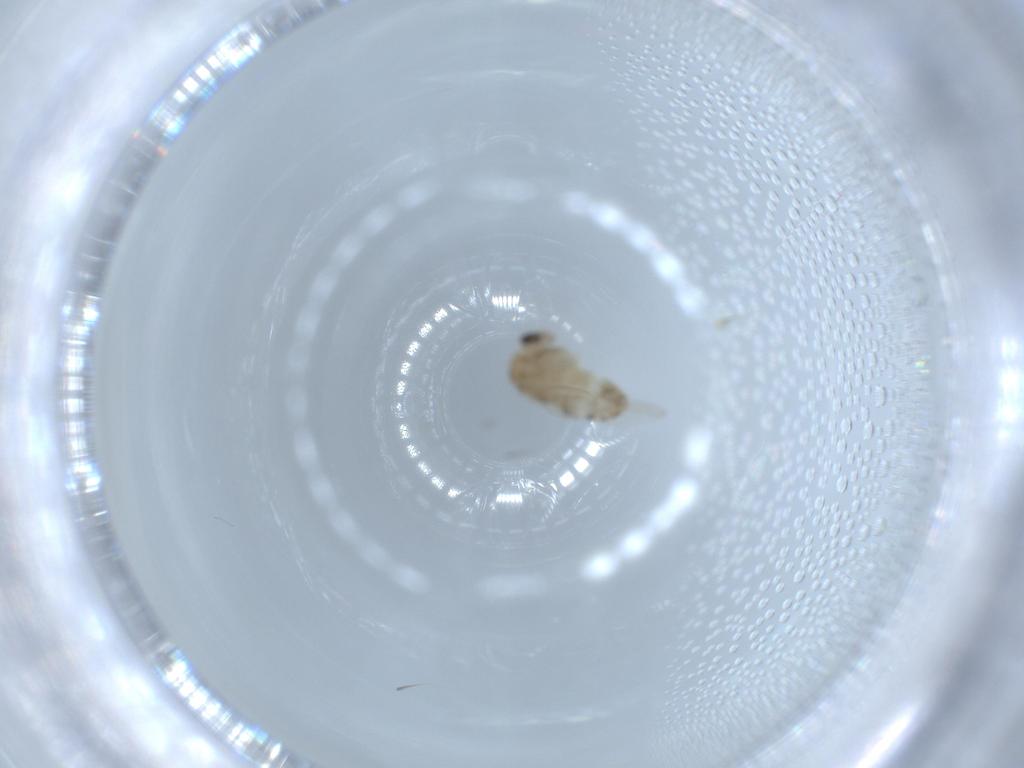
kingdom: Animalia
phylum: Arthropoda
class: Insecta
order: Diptera
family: Chironomidae
